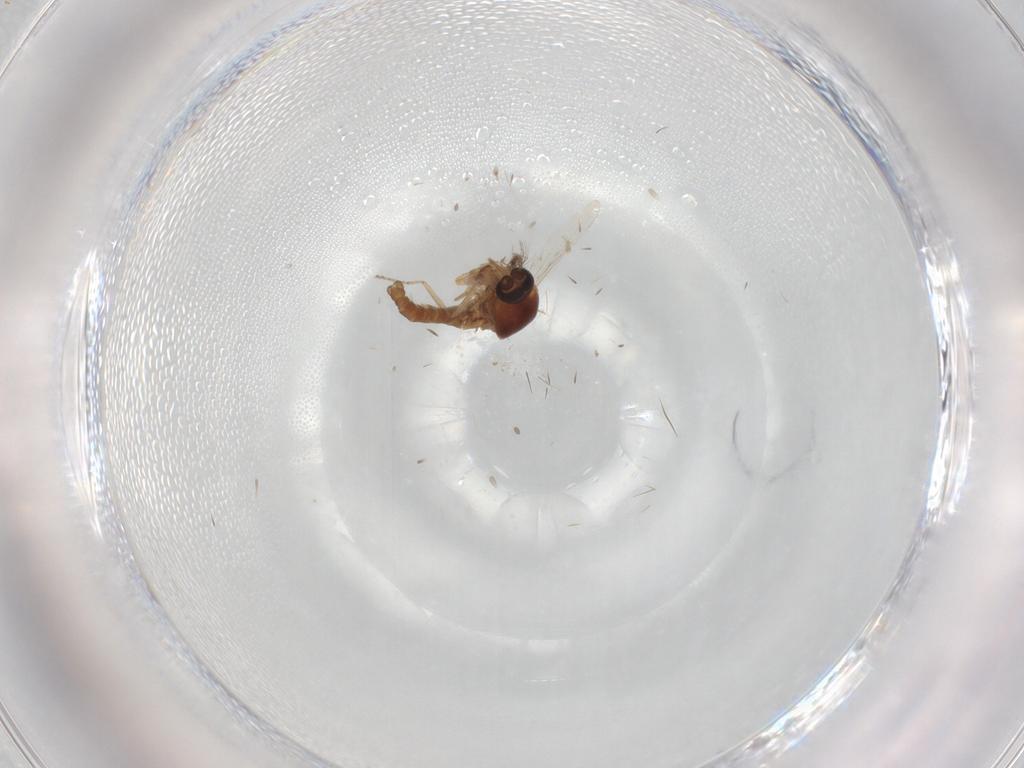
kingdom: Animalia
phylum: Arthropoda
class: Insecta
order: Diptera
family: Ceratopogonidae
